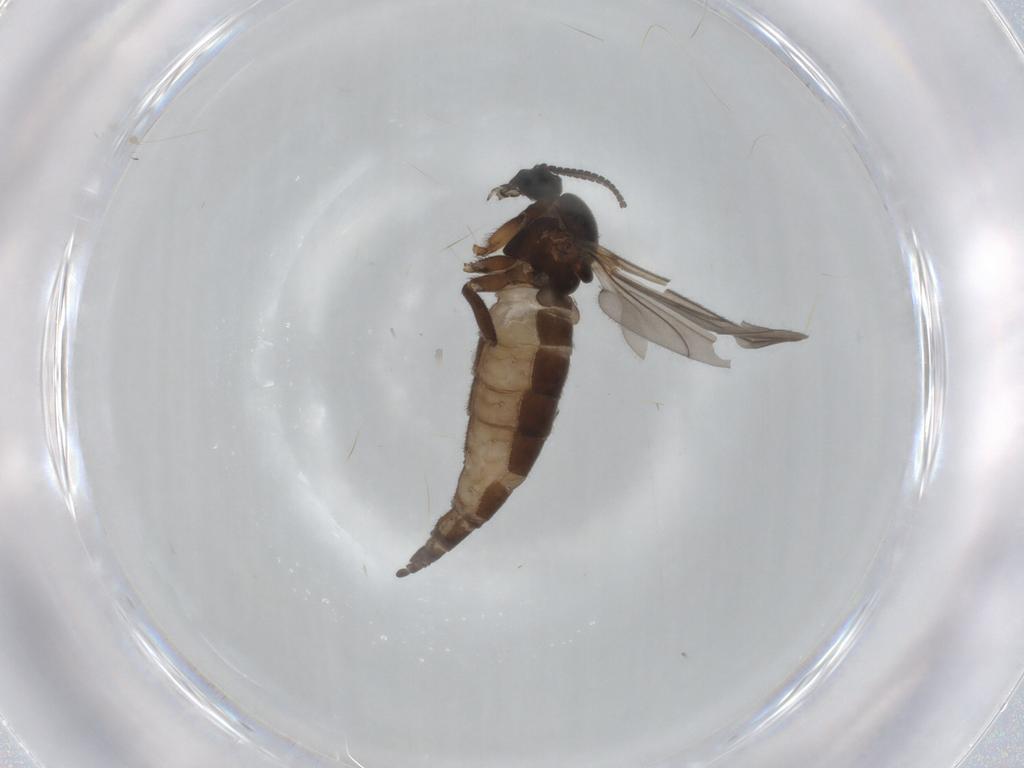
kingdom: Animalia
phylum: Arthropoda
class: Insecta
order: Diptera
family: Sciaridae
